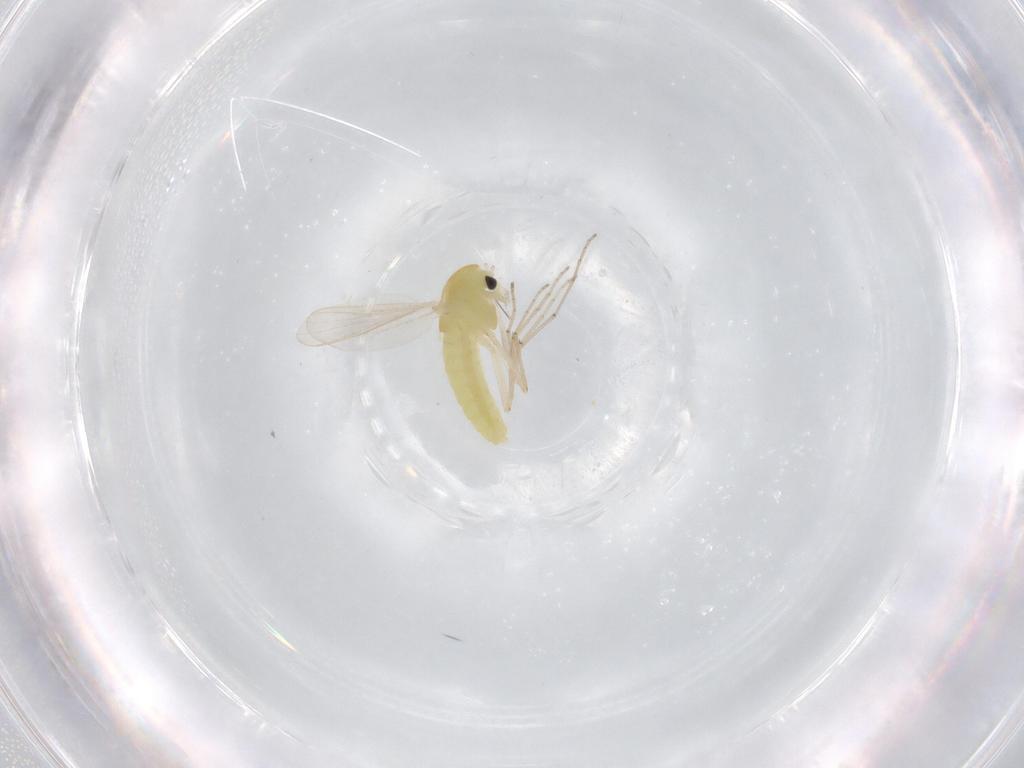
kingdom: Animalia
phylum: Arthropoda
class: Insecta
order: Diptera
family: Chironomidae
